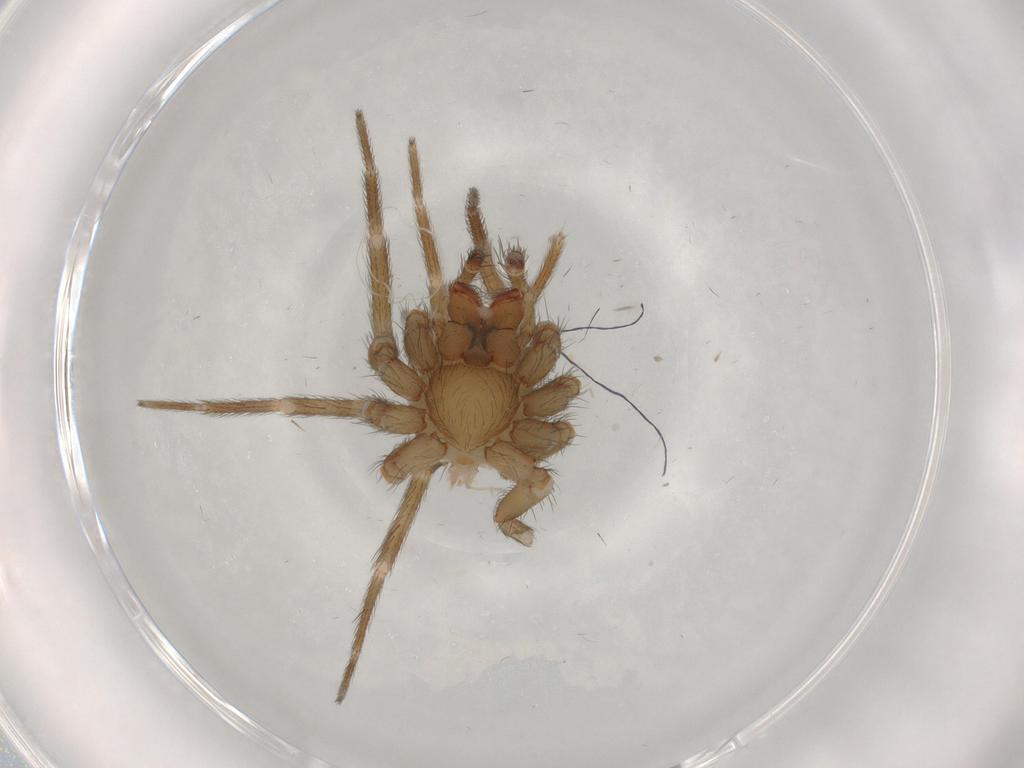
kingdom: Animalia
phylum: Arthropoda
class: Arachnida
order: Araneae
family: Hahniidae
